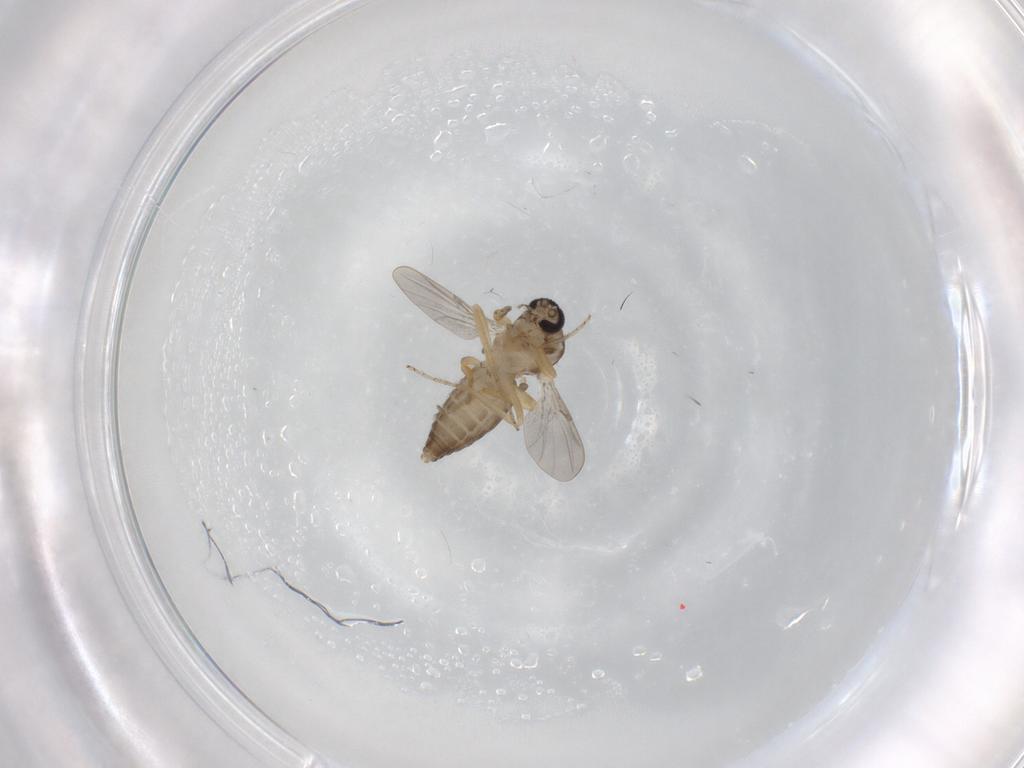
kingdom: Animalia
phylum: Arthropoda
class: Insecta
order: Diptera
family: Ceratopogonidae
